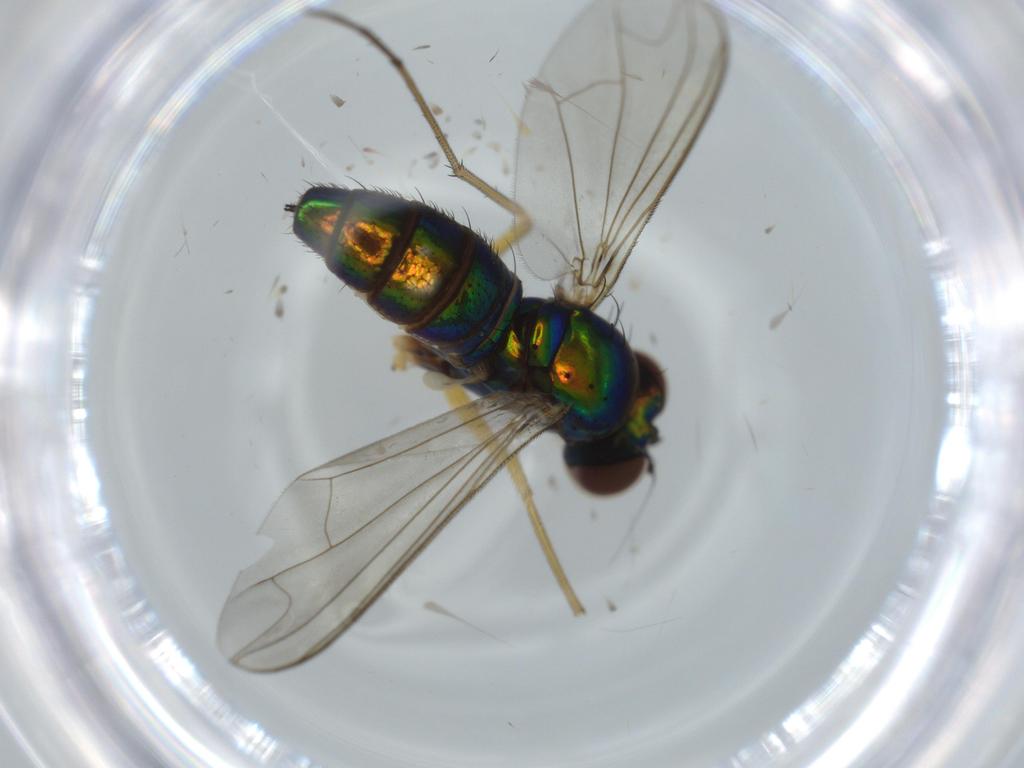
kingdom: Animalia
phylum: Arthropoda
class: Insecta
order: Diptera
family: Dolichopodidae
